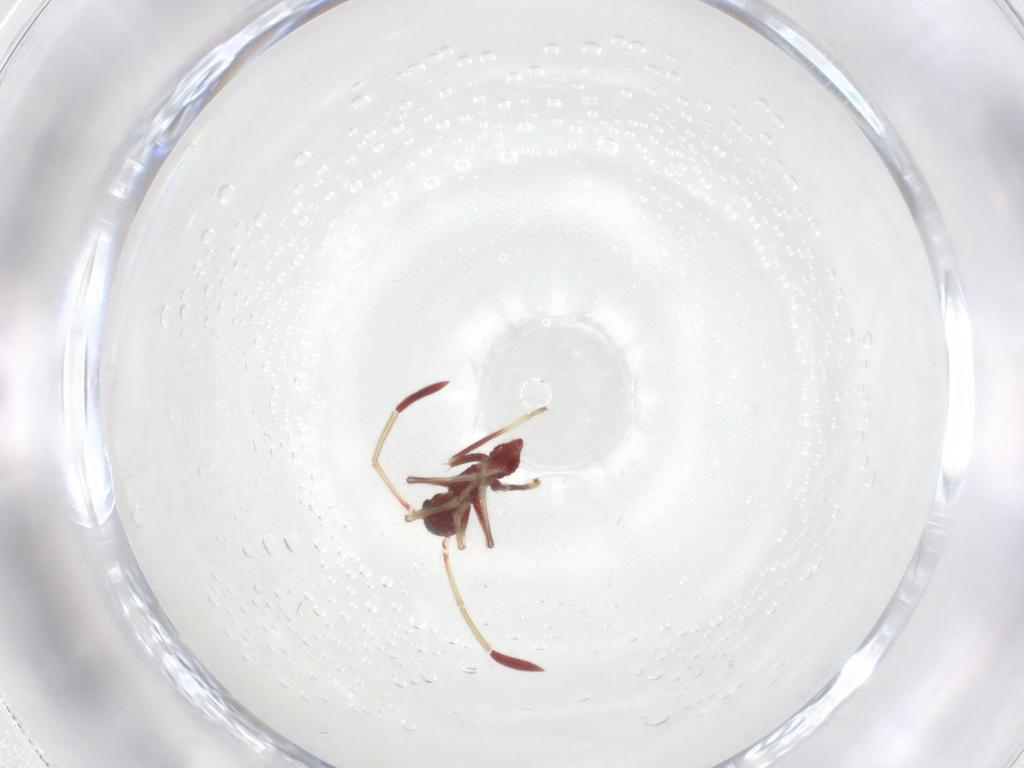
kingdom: Animalia
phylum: Arthropoda
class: Insecta
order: Hemiptera
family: Miridae
